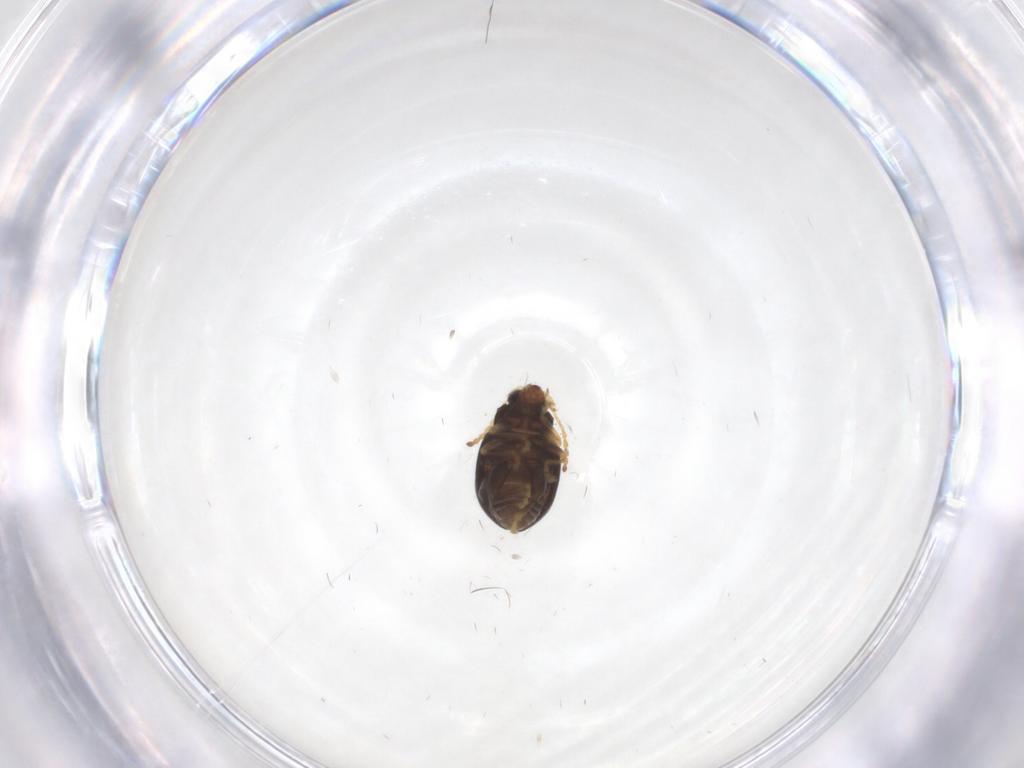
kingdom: Animalia
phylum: Arthropoda
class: Insecta
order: Coleoptera
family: Chrysomelidae
